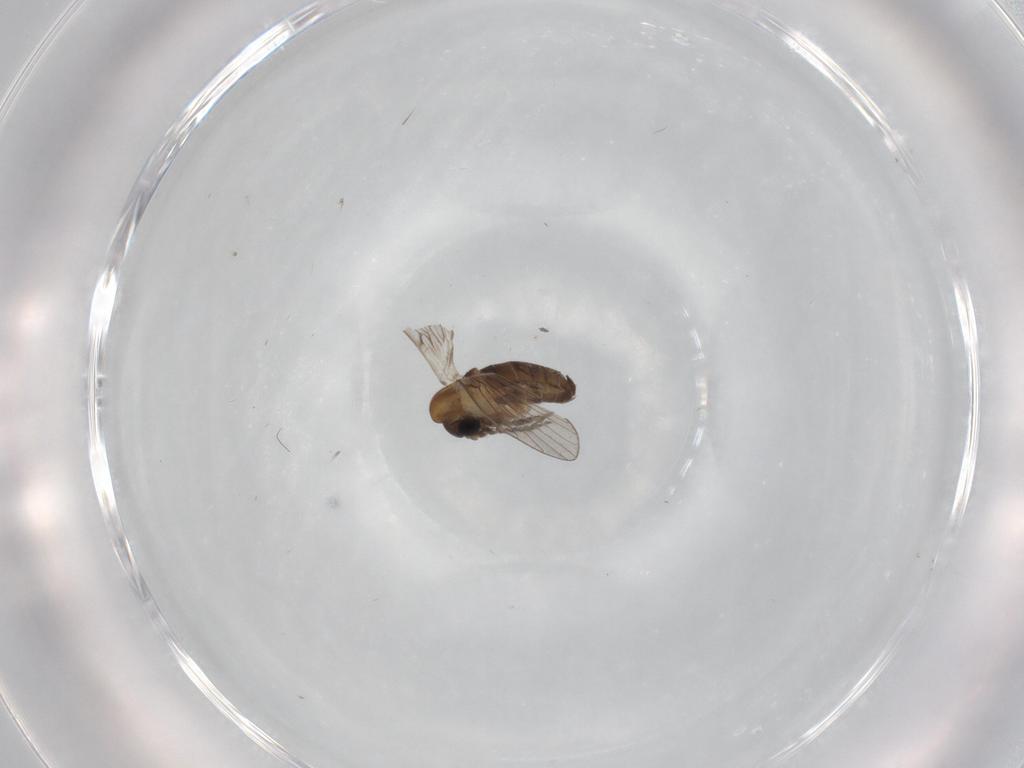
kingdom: Animalia
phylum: Arthropoda
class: Insecta
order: Diptera
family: Psychodidae
